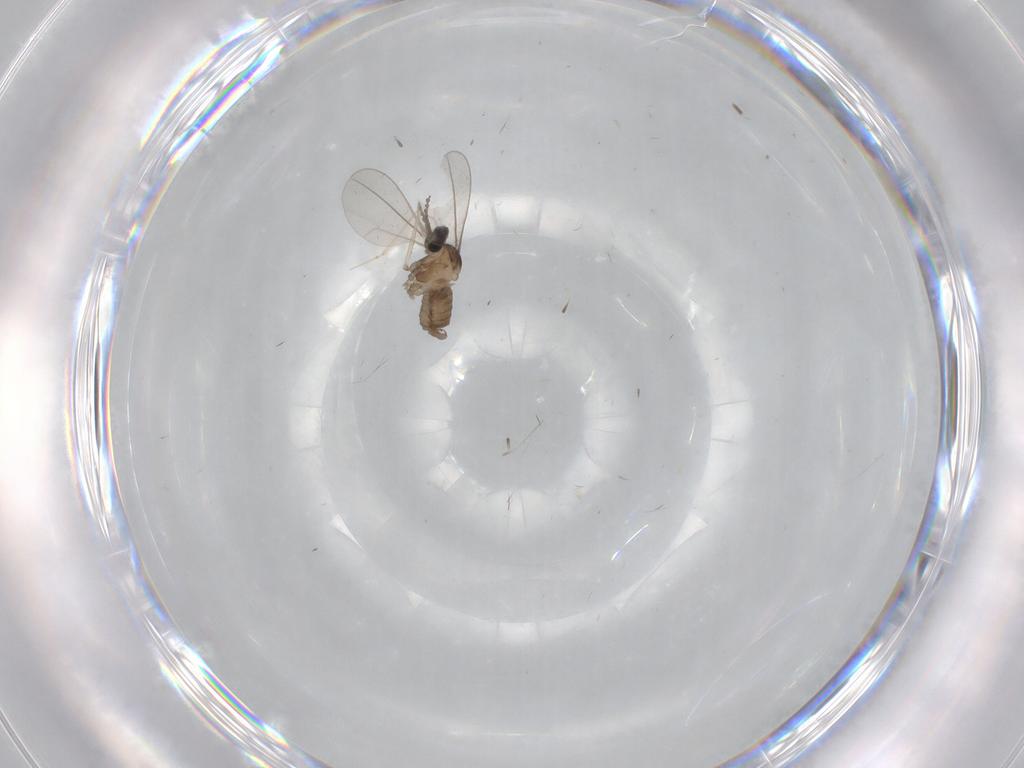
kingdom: Animalia
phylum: Arthropoda
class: Insecta
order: Diptera
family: Cecidomyiidae
